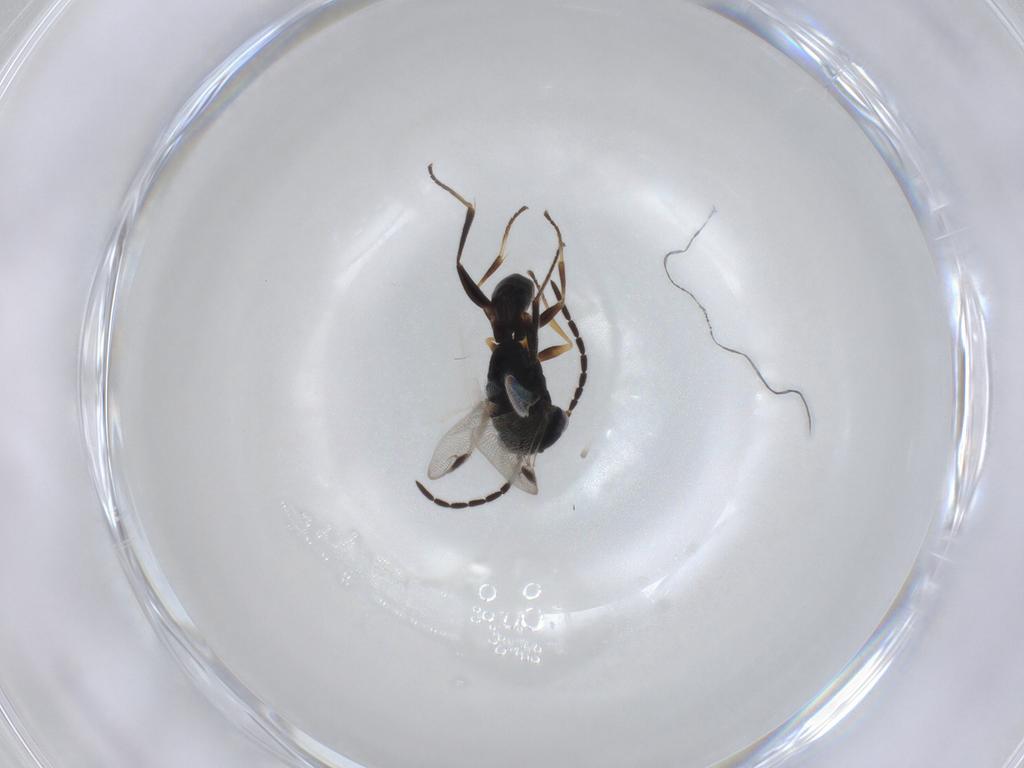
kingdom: Animalia
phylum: Arthropoda
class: Insecta
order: Hymenoptera
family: Dryinidae
